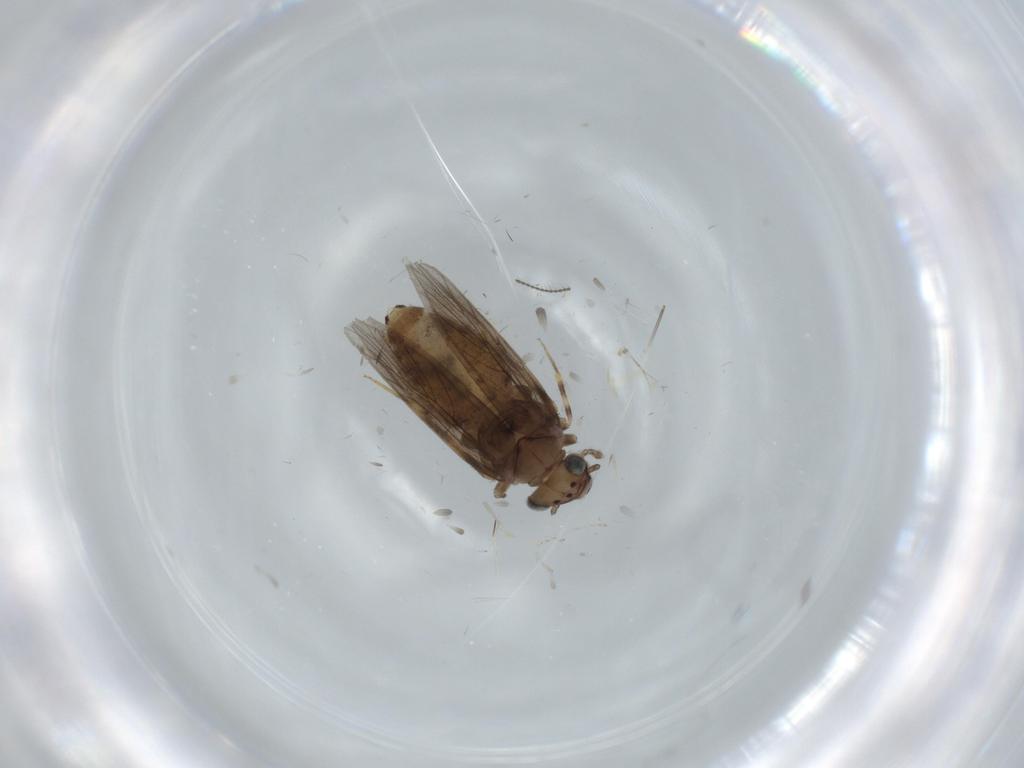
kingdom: Animalia
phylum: Arthropoda
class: Insecta
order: Psocodea
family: Lepidopsocidae
